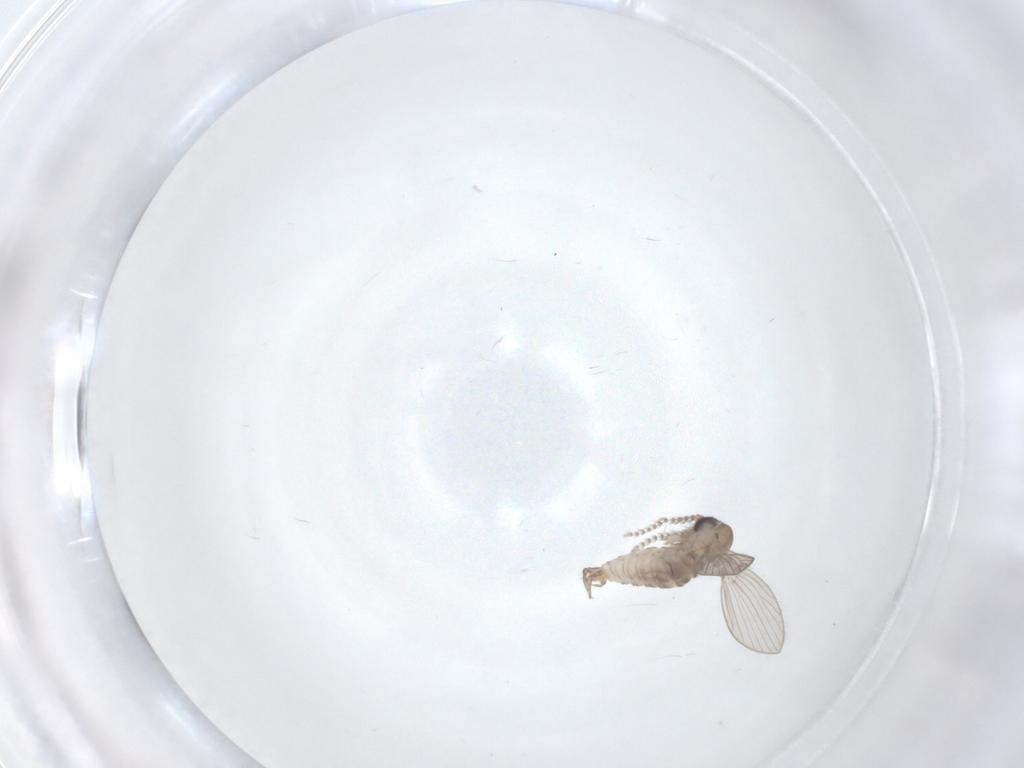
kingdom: Animalia
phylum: Arthropoda
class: Insecta
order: Diptera
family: Psychodidae
